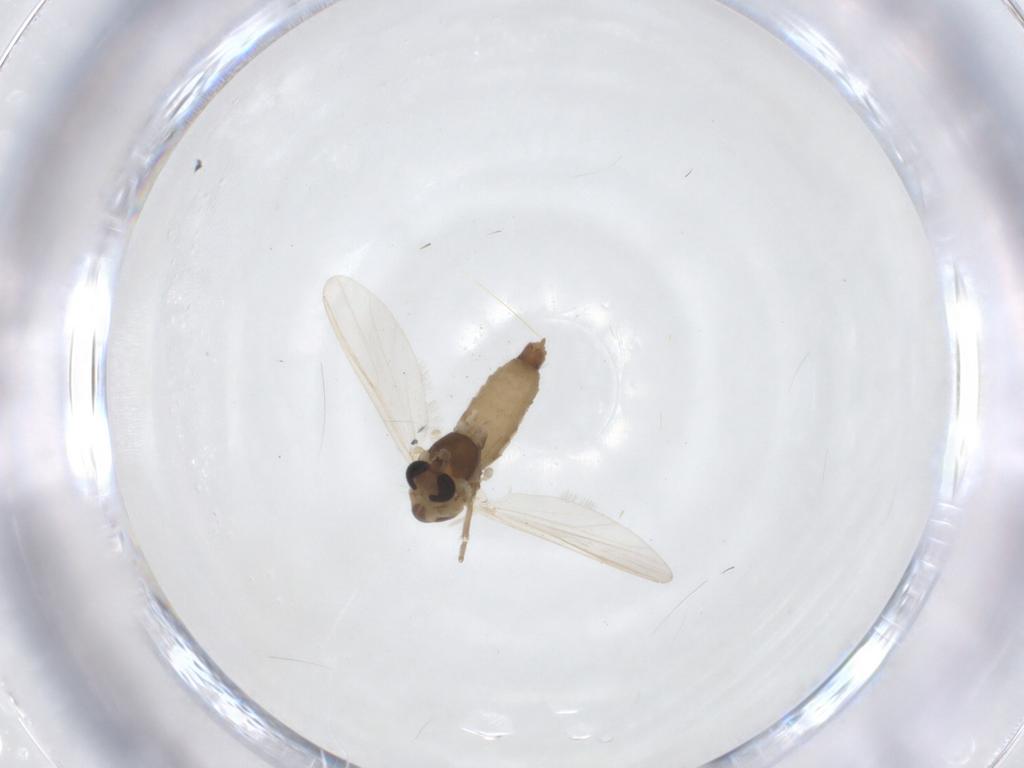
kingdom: Animalia
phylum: Arthropoda
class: Insecta
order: Diptera
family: Chironomidae
